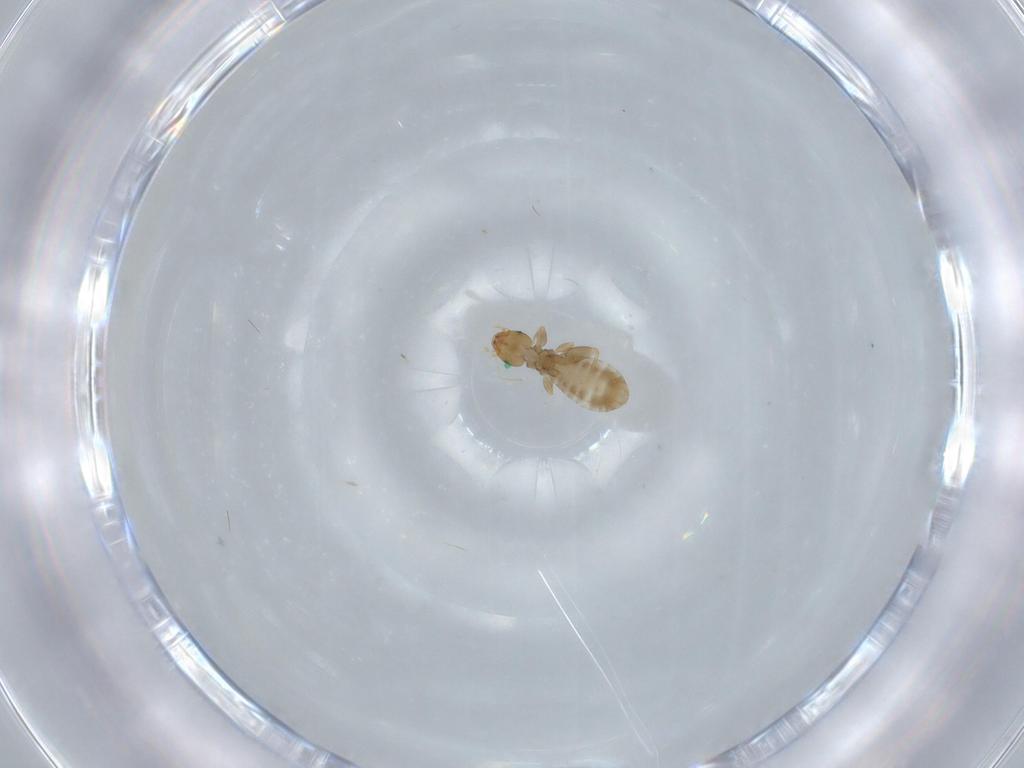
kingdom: Animalia
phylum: Arthropoda
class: Insecta
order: Psocodea
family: Liposcelididae
